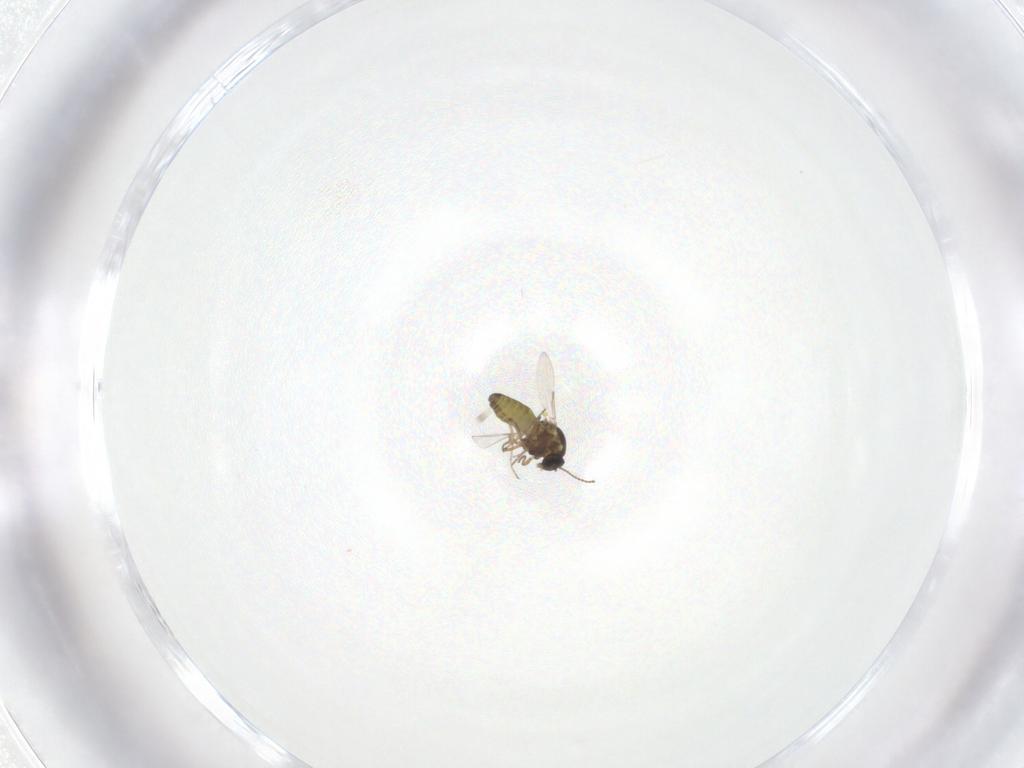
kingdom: Animalia
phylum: Arthropoda
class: Insecta
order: Diptera
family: Ceratopogonidae
